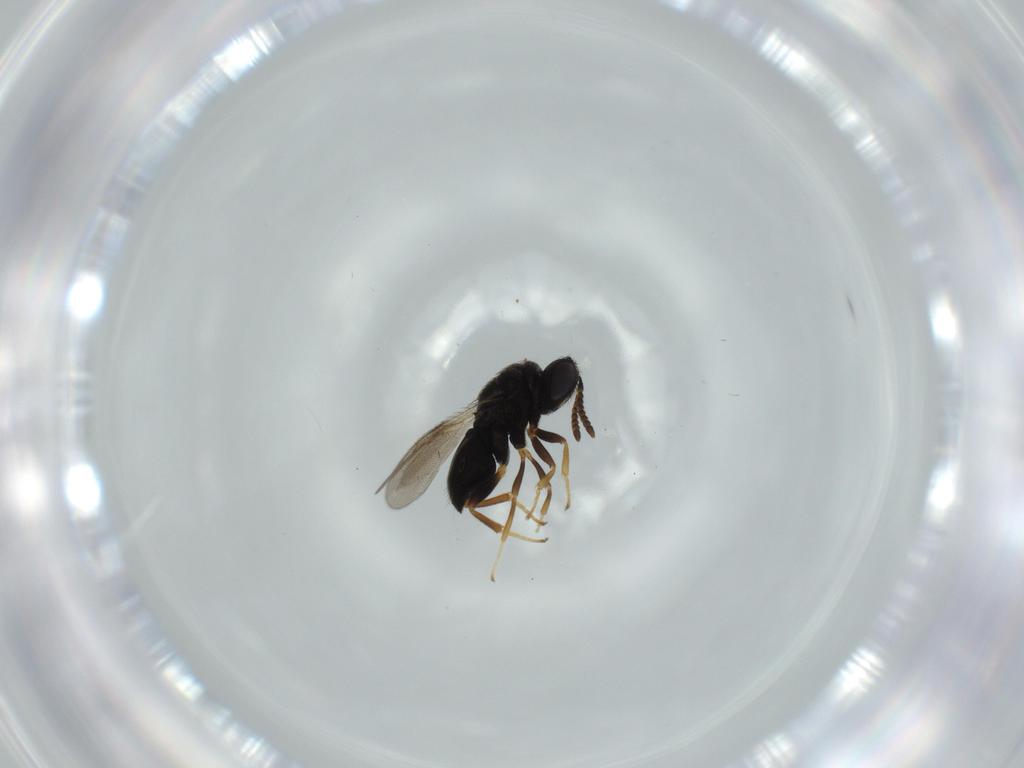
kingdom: Animalia
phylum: Arthropoda
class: Insecta
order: Hymenoptera
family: Pteromalidae
